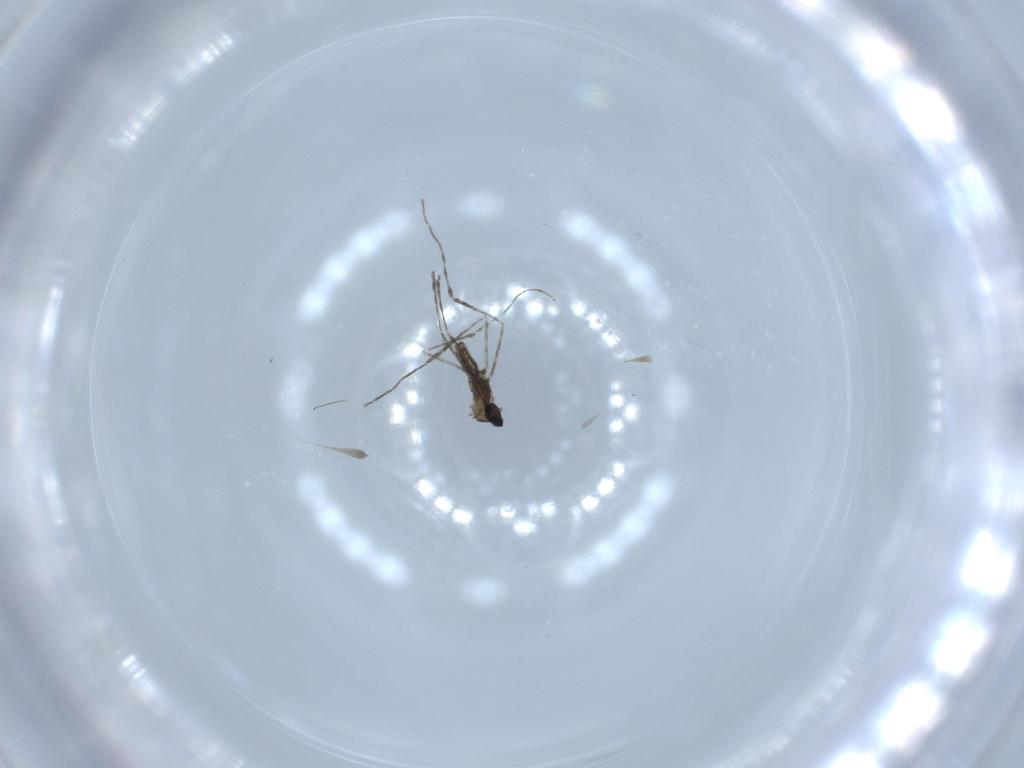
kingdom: Animalia
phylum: Arthropoda
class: Insecta
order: Diptera
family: Cecidomyiidae
